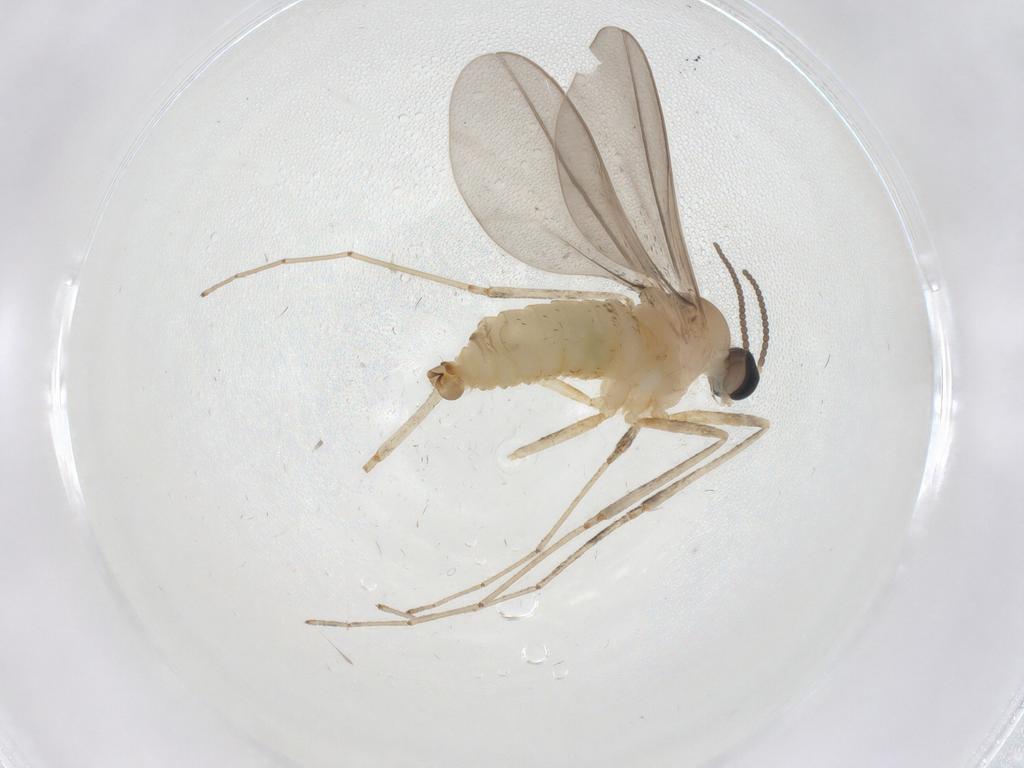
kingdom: Animalia
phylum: Arthropoda
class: Insecta
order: Diptera
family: Cecidomyiidae
